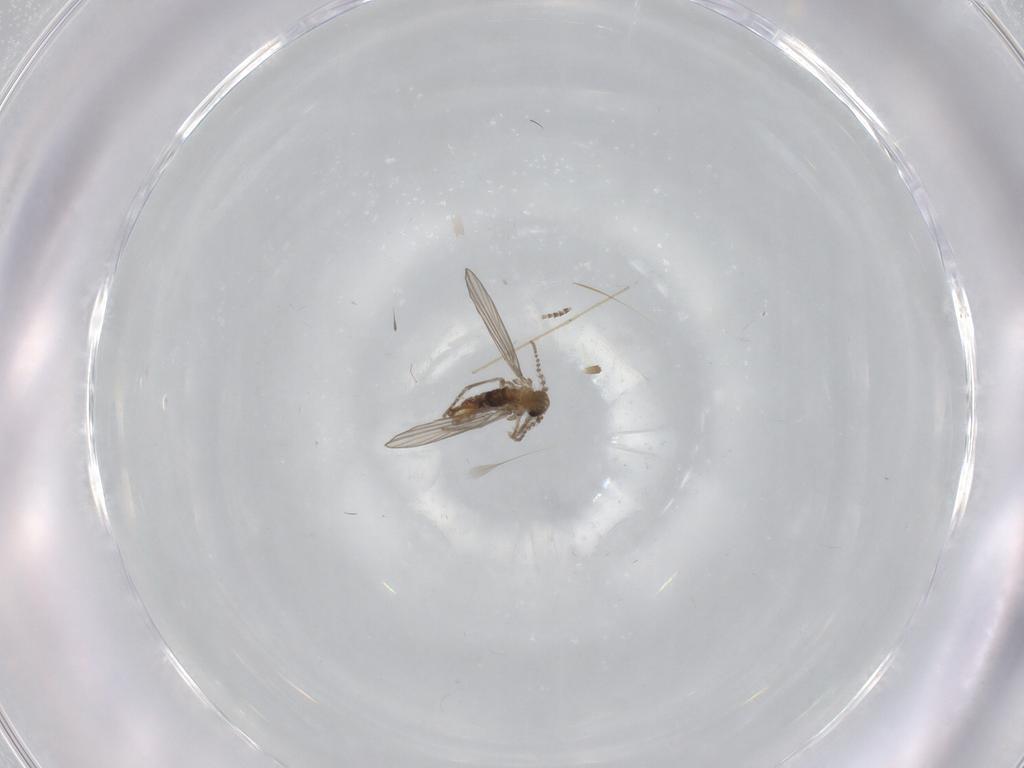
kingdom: Animalia
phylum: Arthropoda
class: Insecta
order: Diptera
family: Psychodidae
